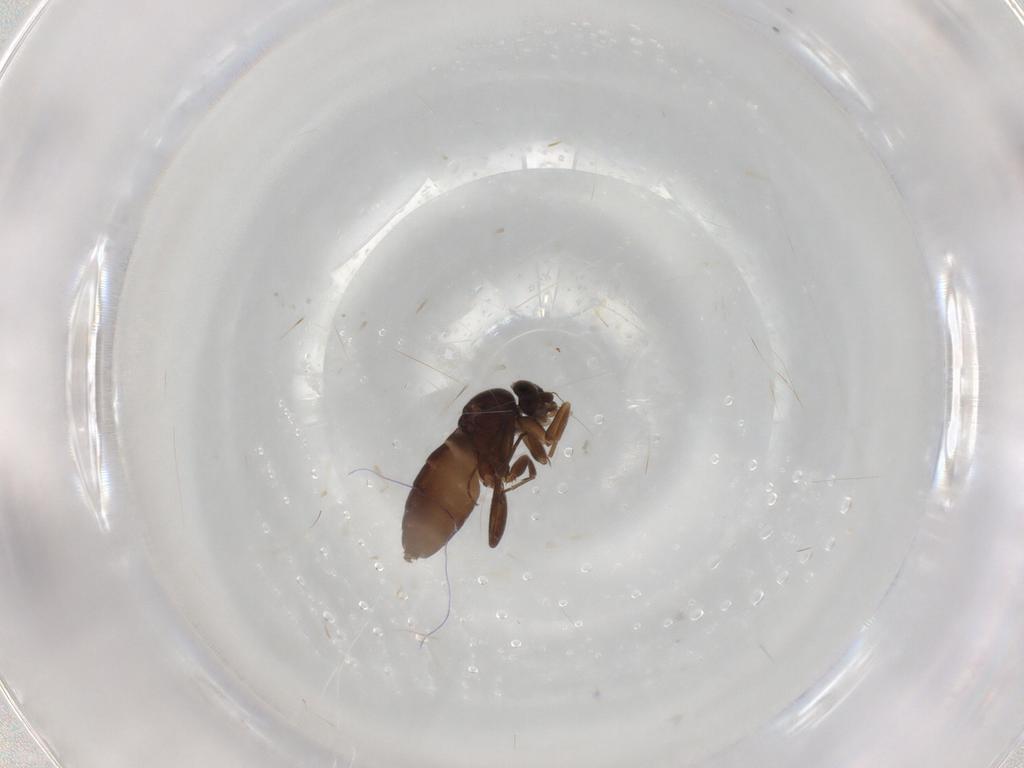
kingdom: Animalia
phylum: Arthropoda
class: Insecta
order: Diptera
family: Phoridae
